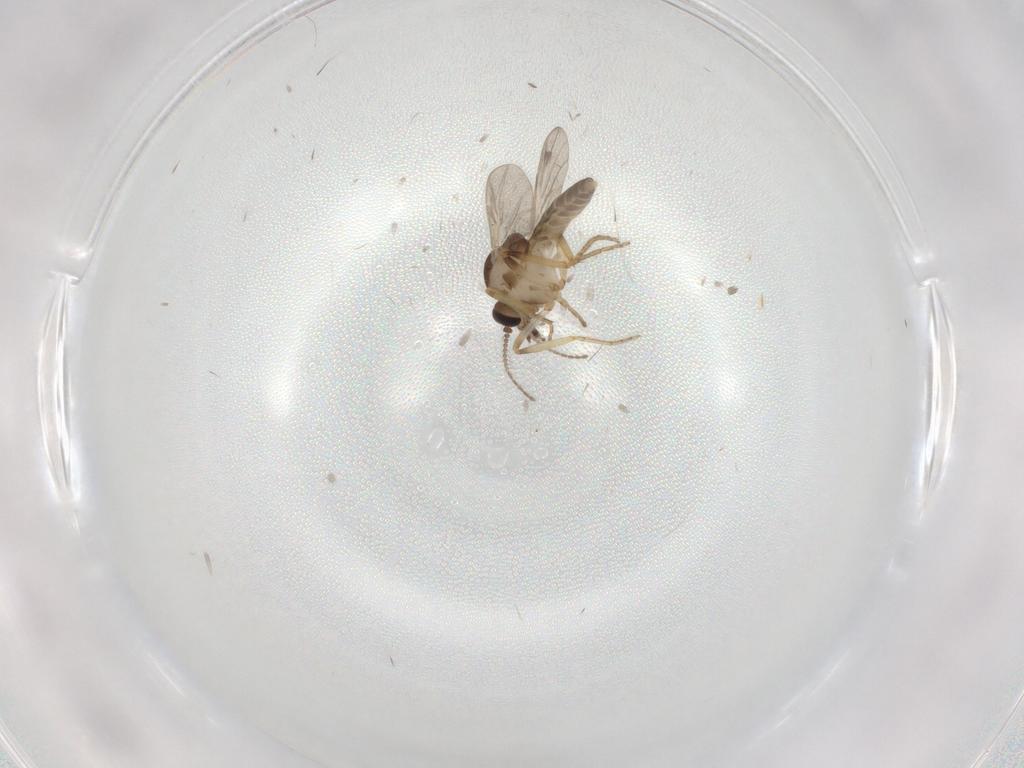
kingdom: Animalia
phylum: Arthropoda
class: Insecta
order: Diptera
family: Ceratopogonidae
